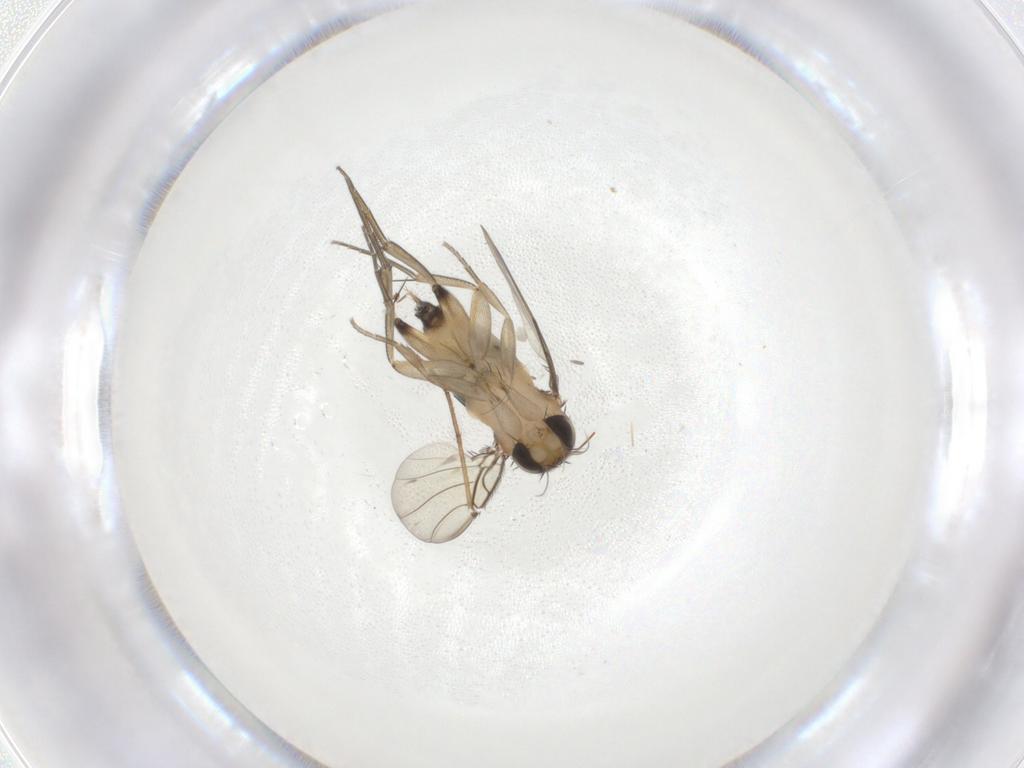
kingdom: Animalia
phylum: Arthropoda
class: Insecta
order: Diptera
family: Phoridae
